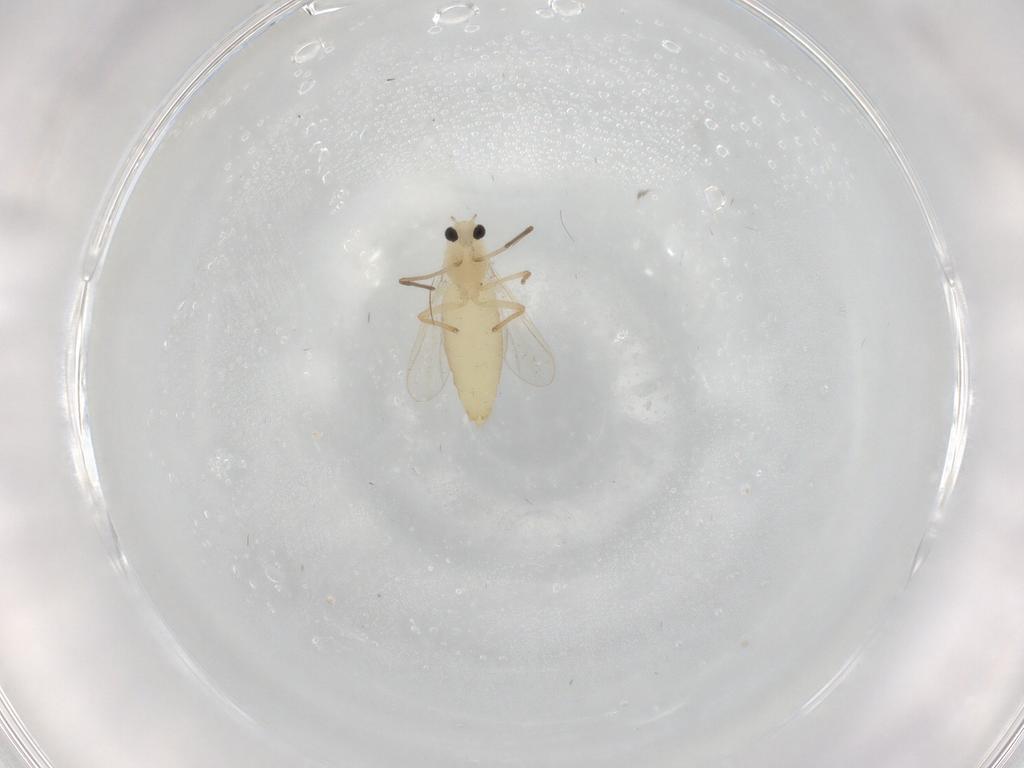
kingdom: Animalia
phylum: Arthropoda
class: Insecta
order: Diptera
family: Chironomidae
